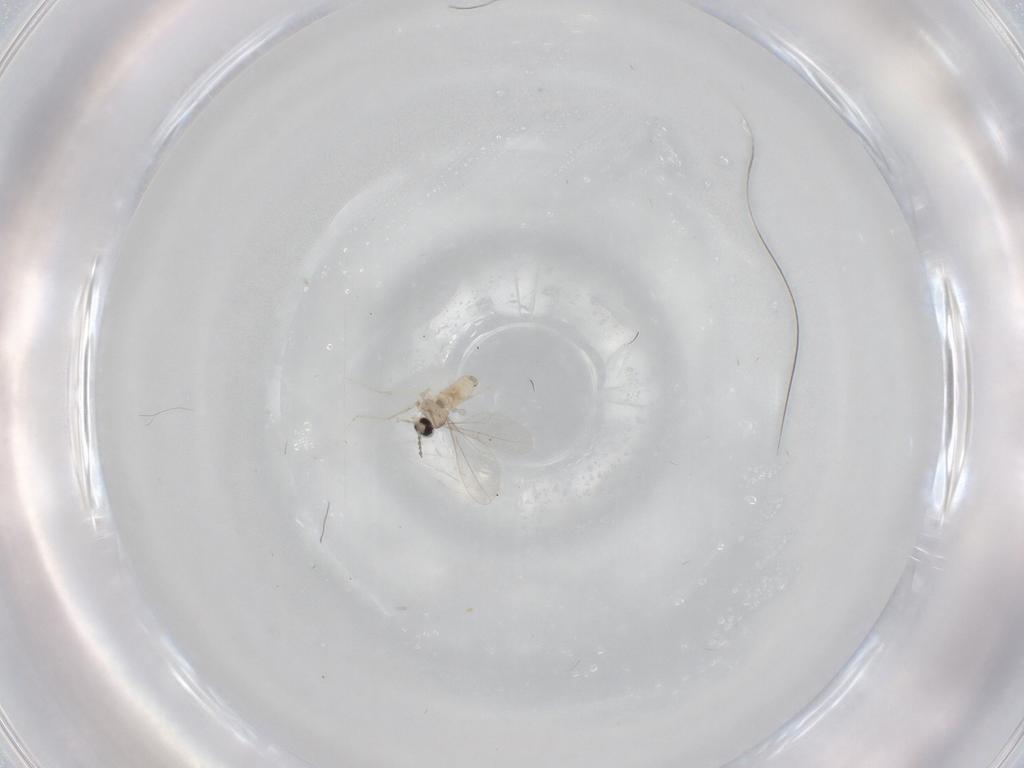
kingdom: Animalia
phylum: Arthropoda
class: Insecta
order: Diptera
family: Cecidomyiidae
